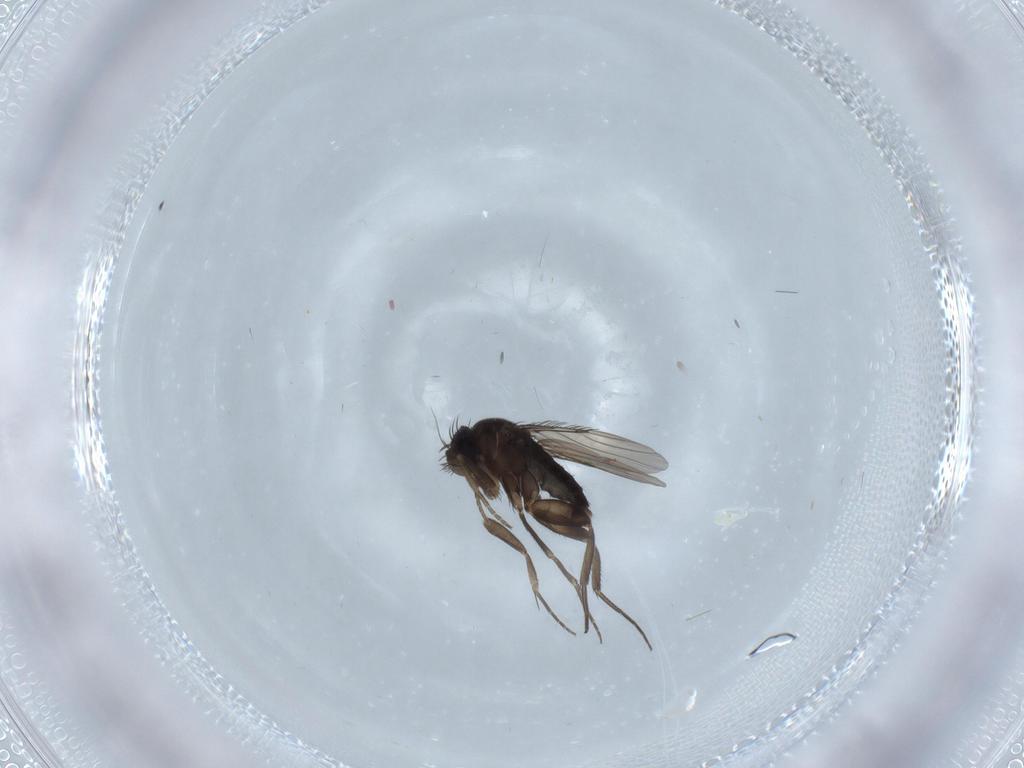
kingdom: Animalia
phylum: Arthropoda
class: Insecta
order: Diptera
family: Phoridae
